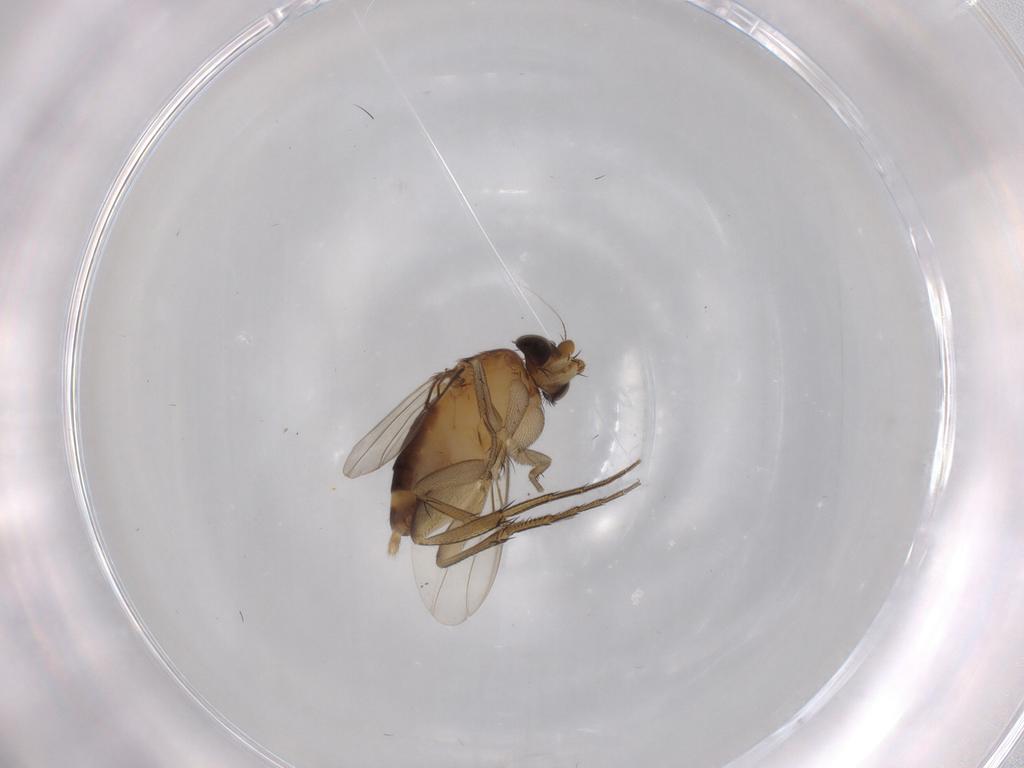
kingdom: Animalia
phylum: Arthropoda
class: Insecta
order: Diptera
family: Phoridae
